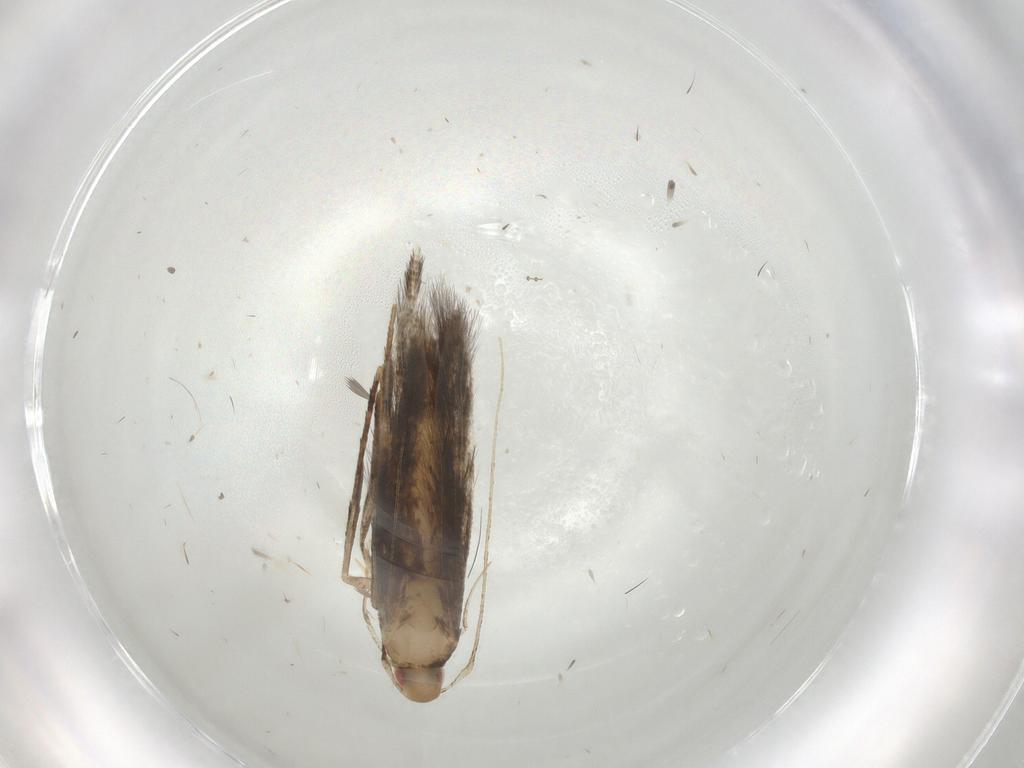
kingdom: Animalia
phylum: Arthropoda
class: Insecta
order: Lepidoptera
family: Cosmopterigidae
